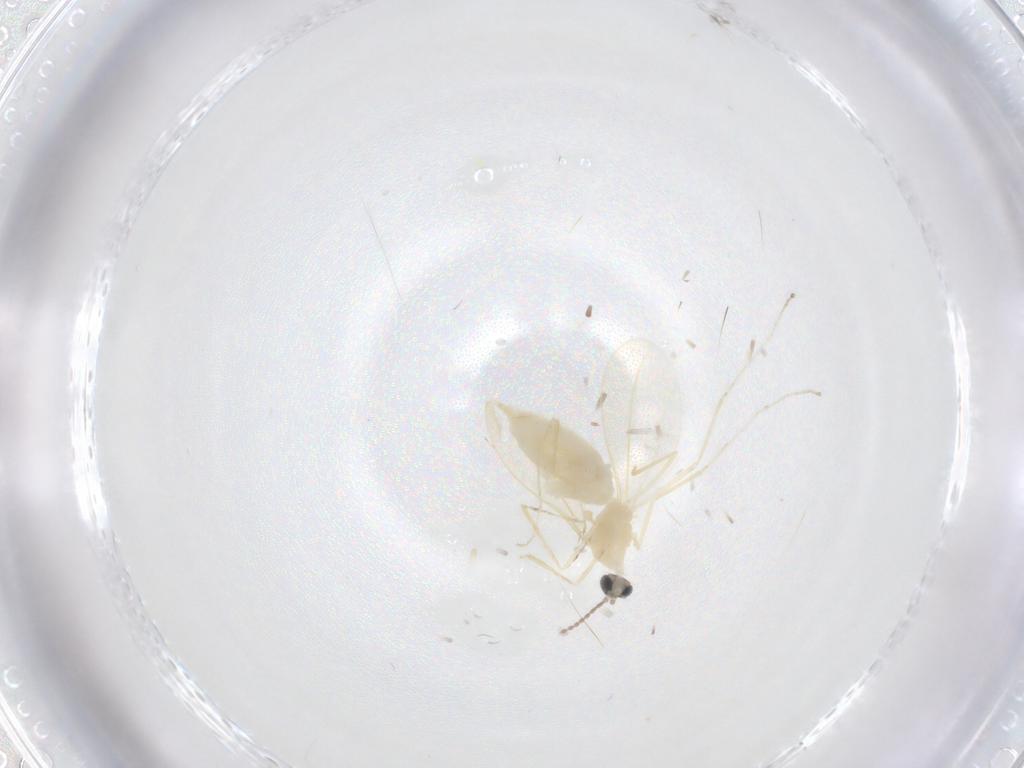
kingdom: Animalia
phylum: Arthropoda
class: Insecta
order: Diptera
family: Cecidomyiidae
